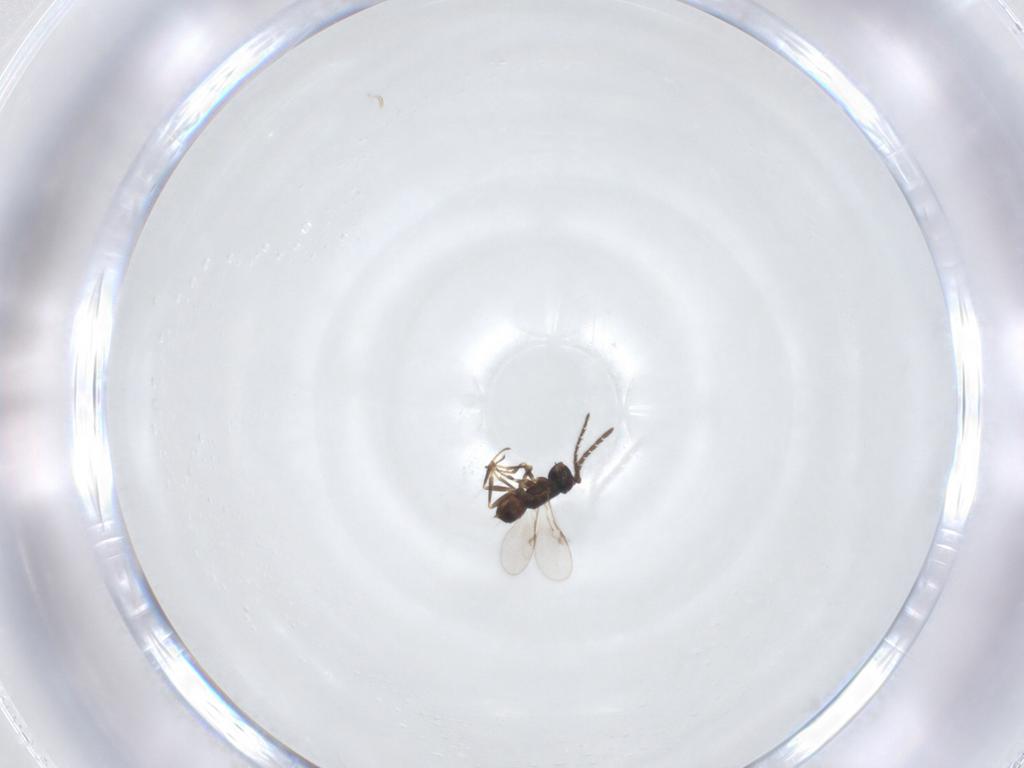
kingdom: Animalia
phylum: Arthropoda
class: Insecta
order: Hymenoptera
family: Encyrtidae
